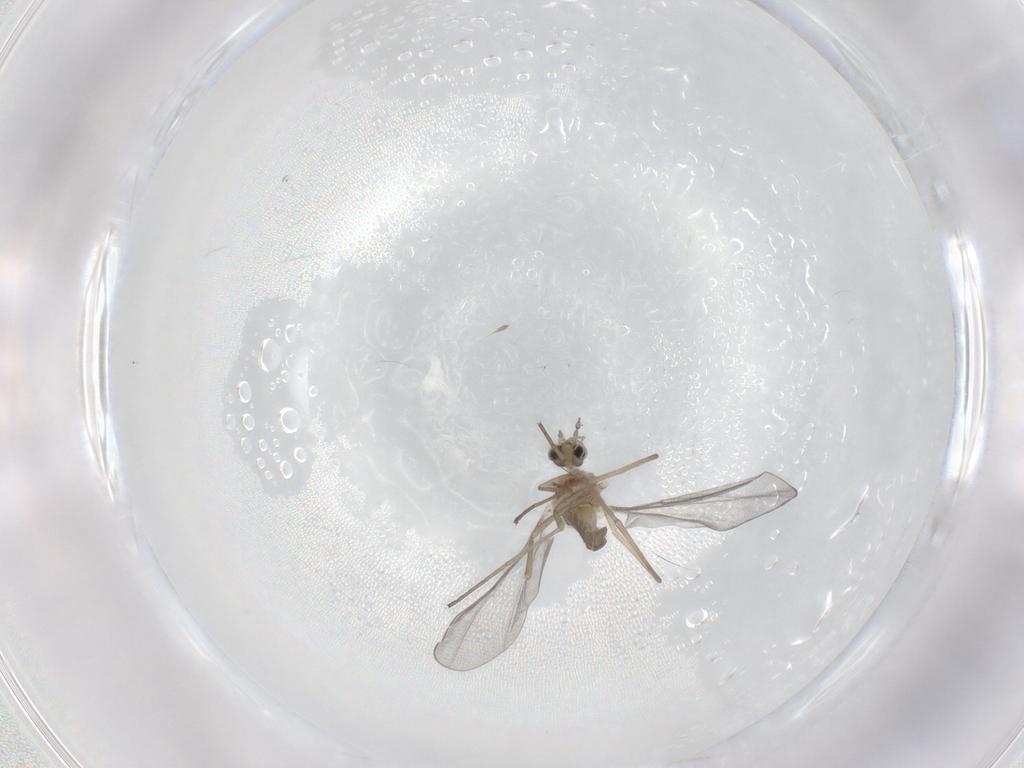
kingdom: Animalia
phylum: Arthropoda
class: Insecta
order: Diptera
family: Cecidomyiidae
